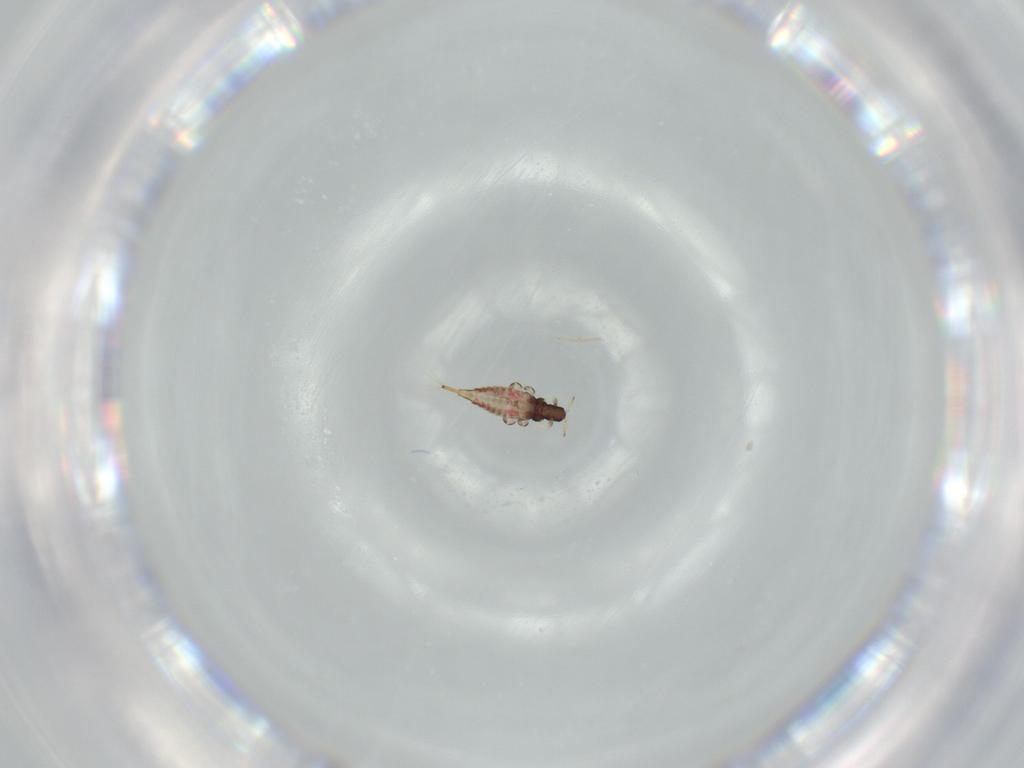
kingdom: Animalia
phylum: Arthropoda
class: Insecta
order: Thysanoptera
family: Phlaeothripidae
